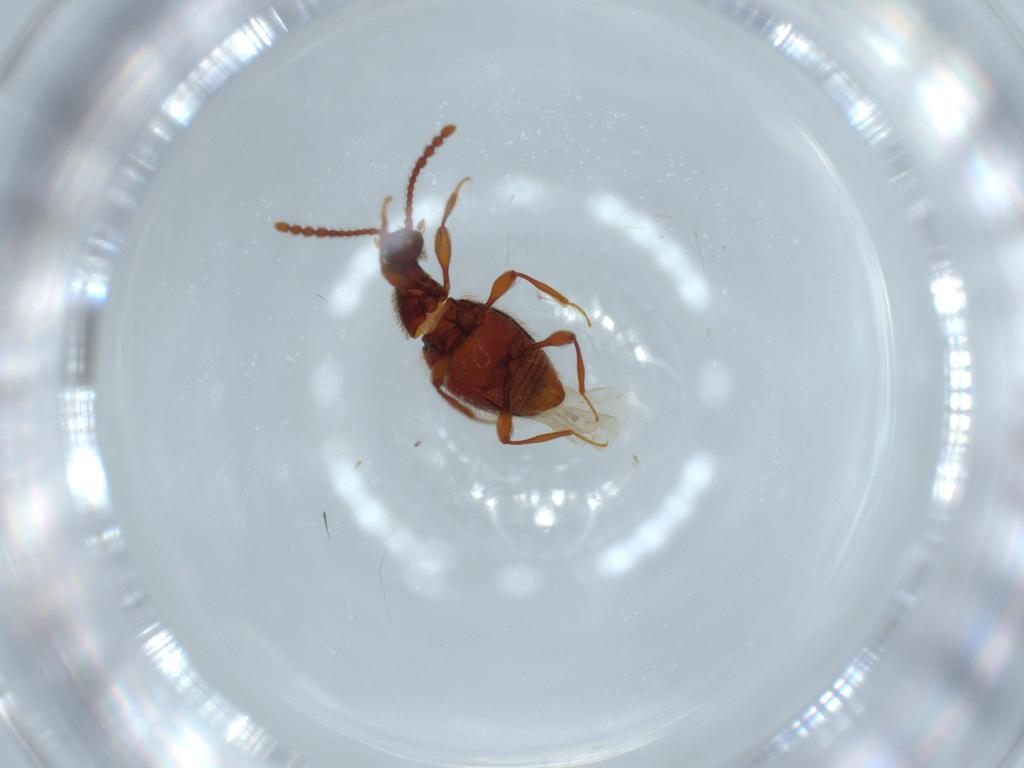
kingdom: Animalia
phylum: Arthropoda
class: Insecta
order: Coleoptera
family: Staphylinidae
